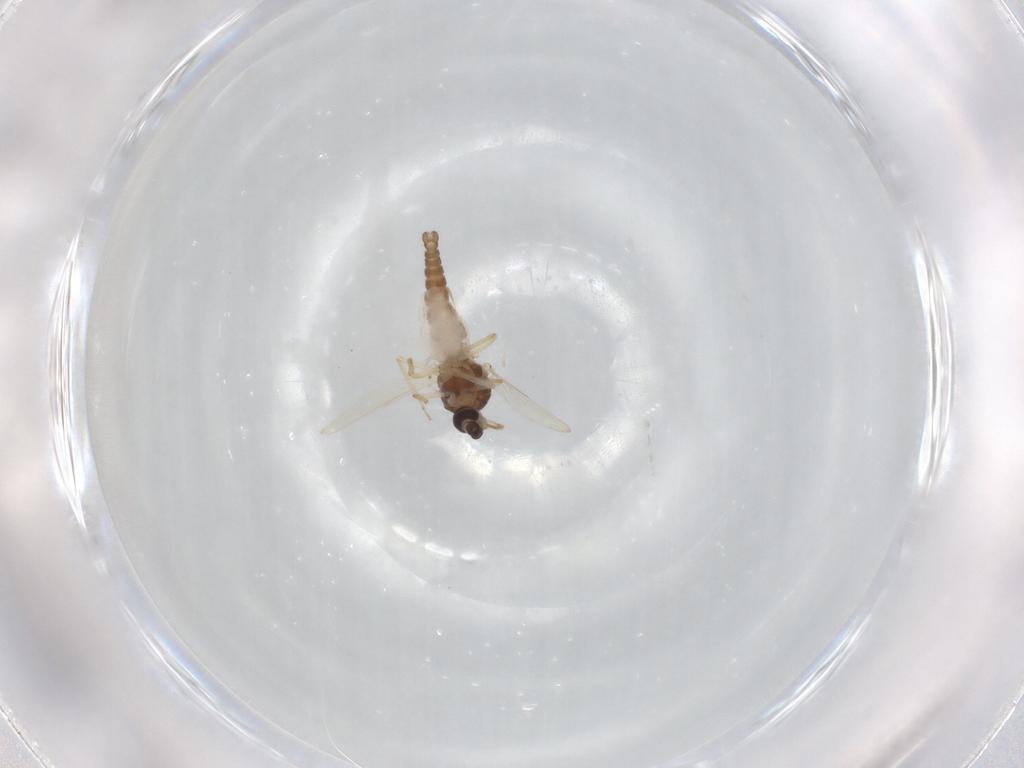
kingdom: Animalia
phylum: Arthropoda
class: Insecta
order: Diptera
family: Ceratopogonidae
